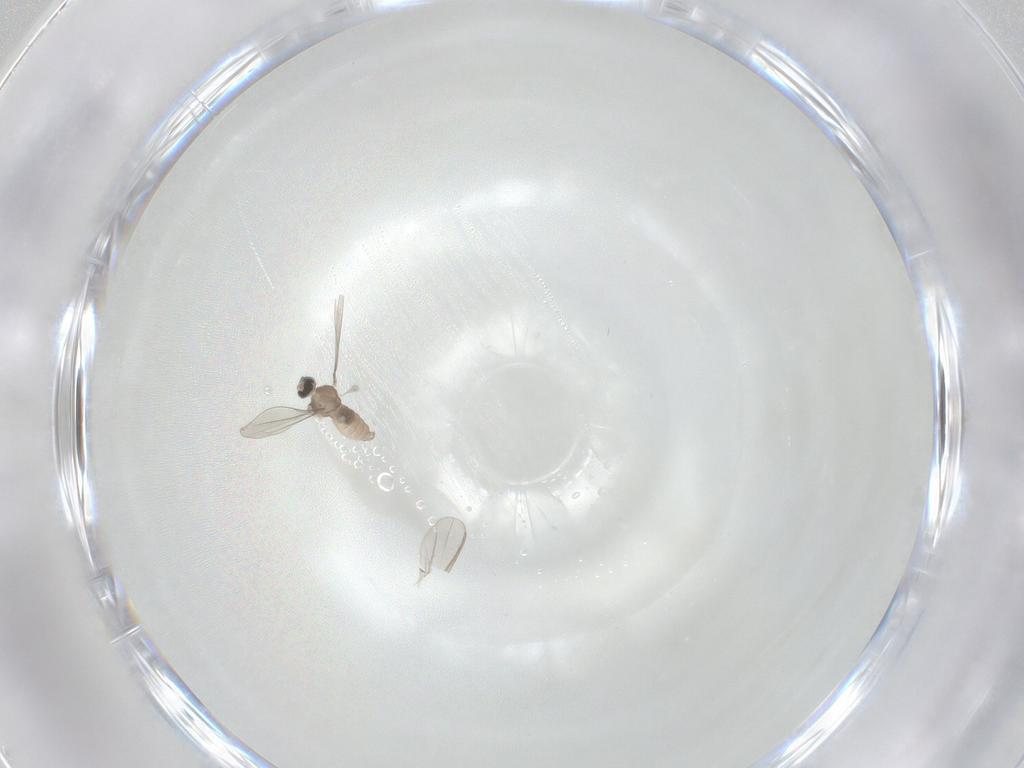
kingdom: Animalia
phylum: Arthropoda
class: Insecta
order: Diptera
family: Chironomidae
